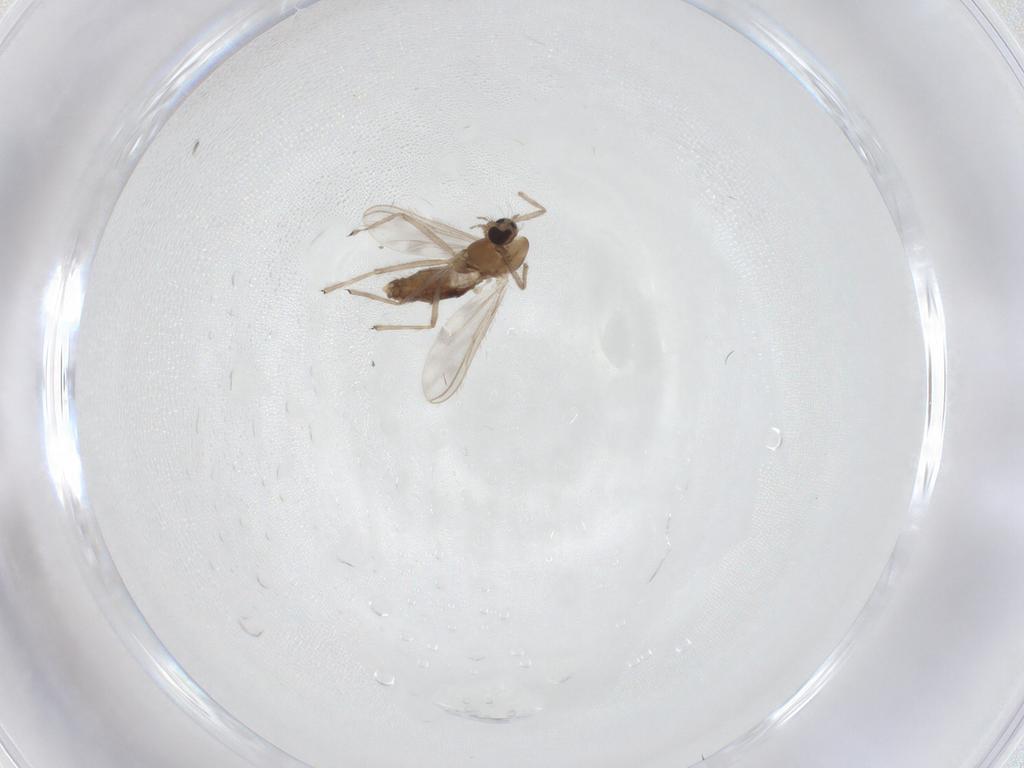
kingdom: Animalia
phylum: Arthropoda
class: Insecta
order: Diptera
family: Chironomidae
